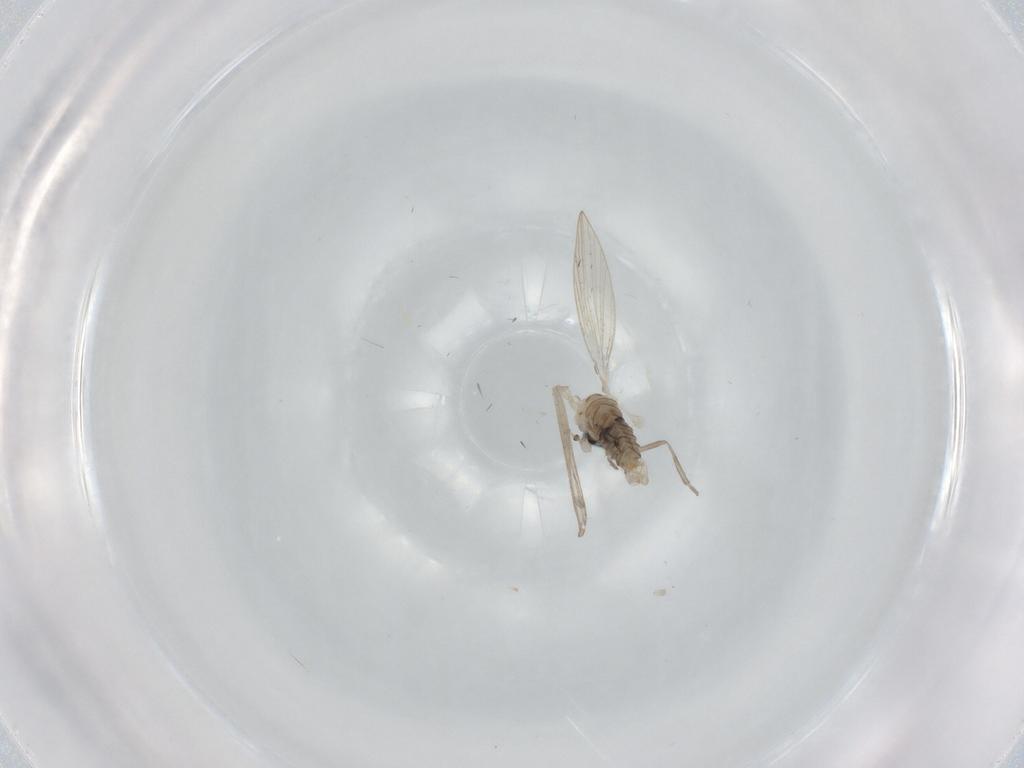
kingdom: Animalia
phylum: Arthropoda
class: Insecta
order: Diptera
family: Psychodidae
